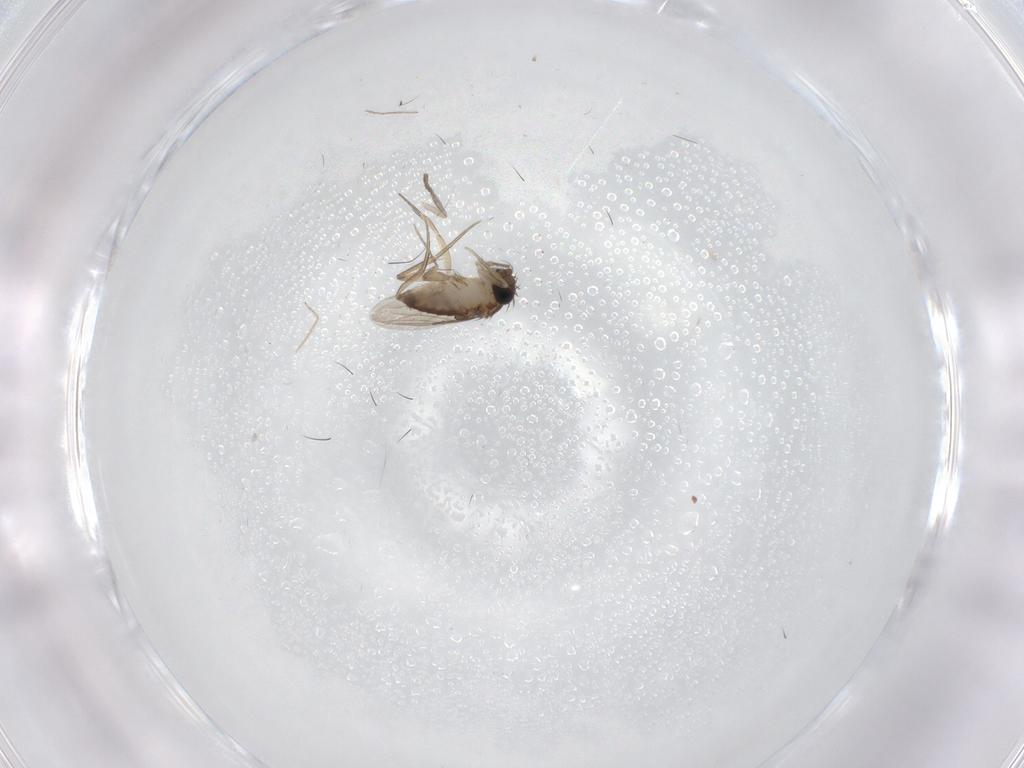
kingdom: Animalia
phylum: Arthropoda
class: Insecta
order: Diptera
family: Phoridae
